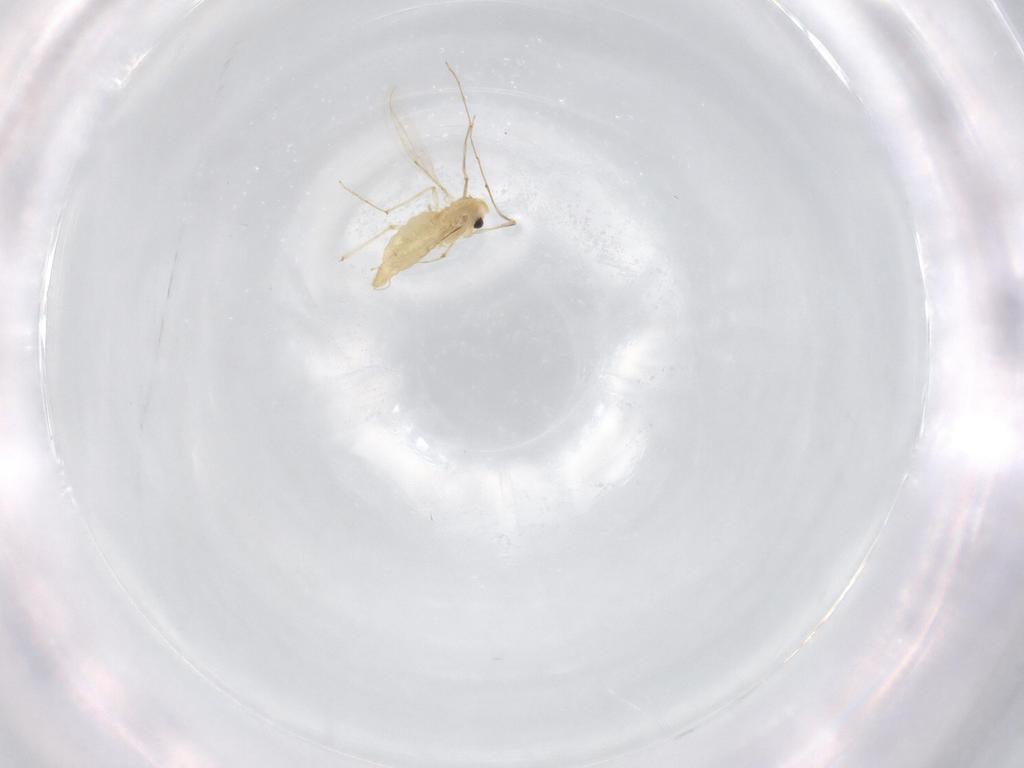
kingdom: Animalia
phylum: Arthropoda
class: Insecta
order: Diptera
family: Chironomidae
